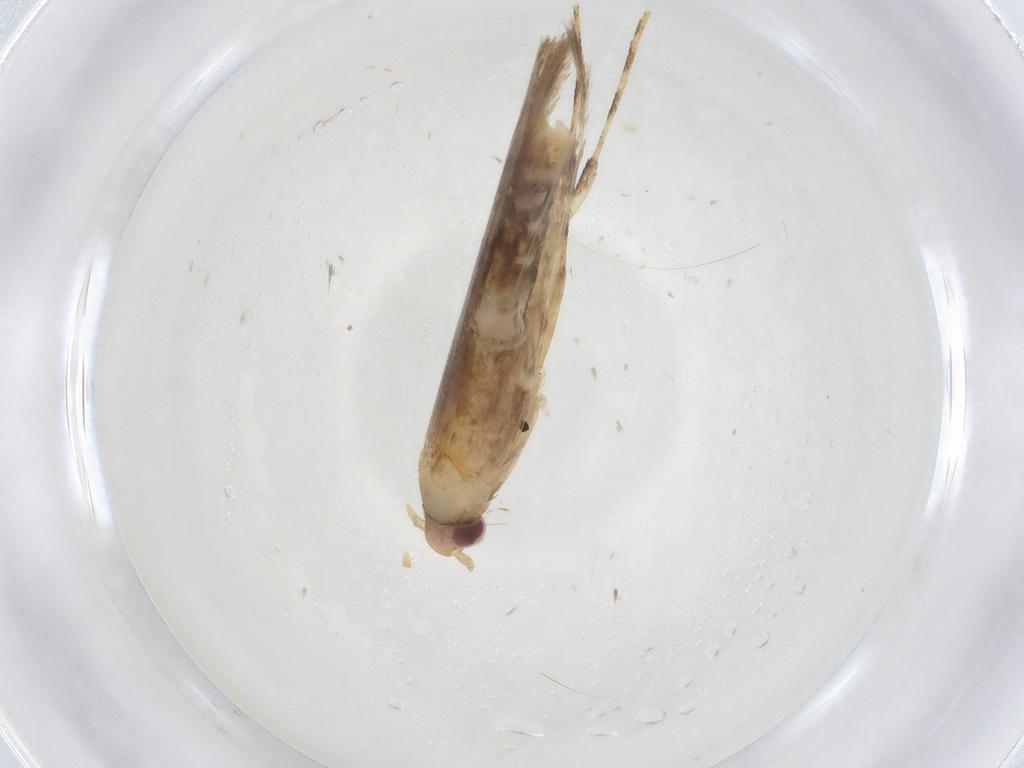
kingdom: Animalia
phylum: Arthropoda
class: Insecta
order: Lepidoptera
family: Gracillariidae
